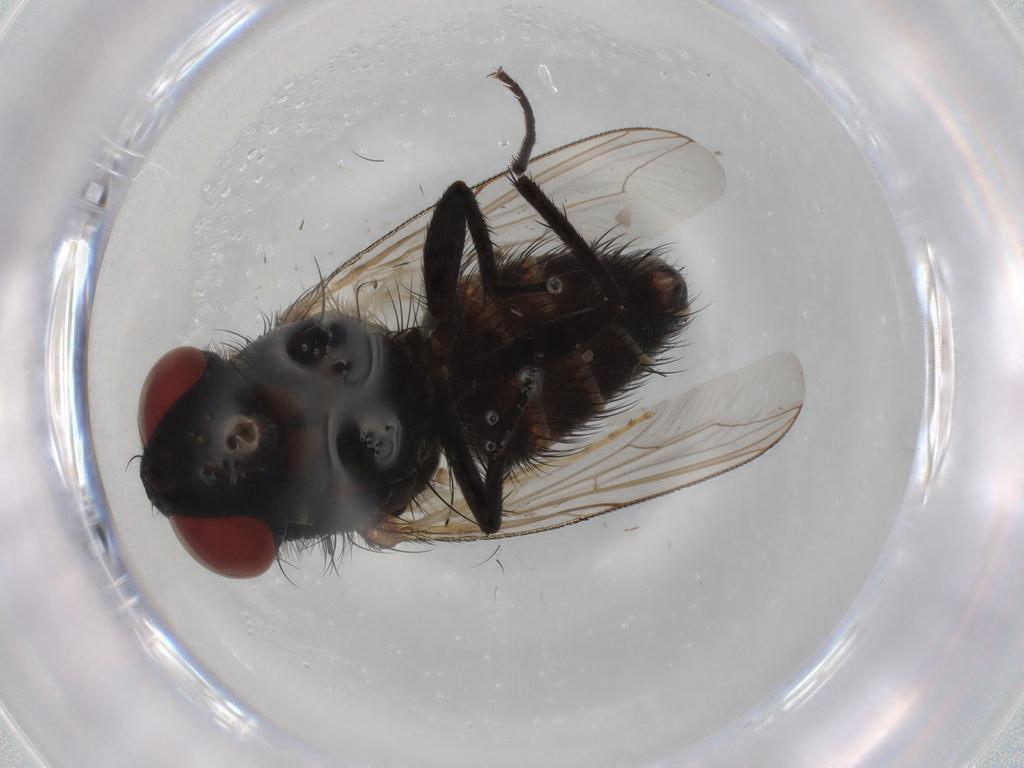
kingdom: Animalia
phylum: Arthropoda
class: Insecta
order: Diptera
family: Sarcophagidae
